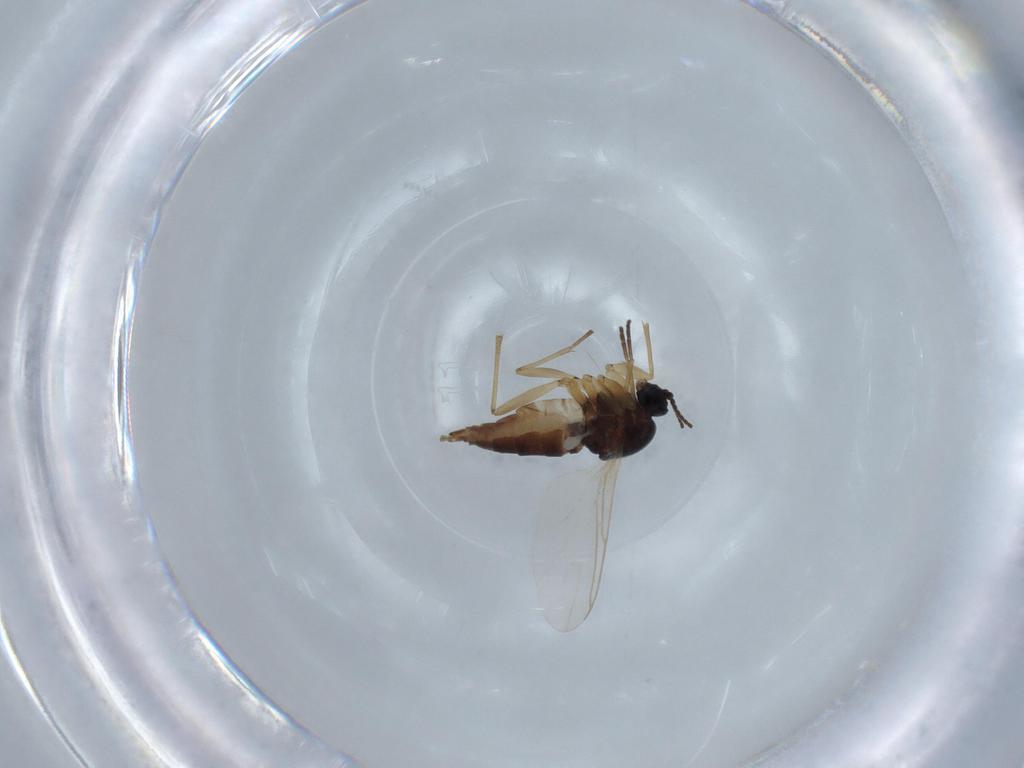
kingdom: Animalia
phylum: Arthropoda
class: Insecta
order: Diptera
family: Sciaridae
